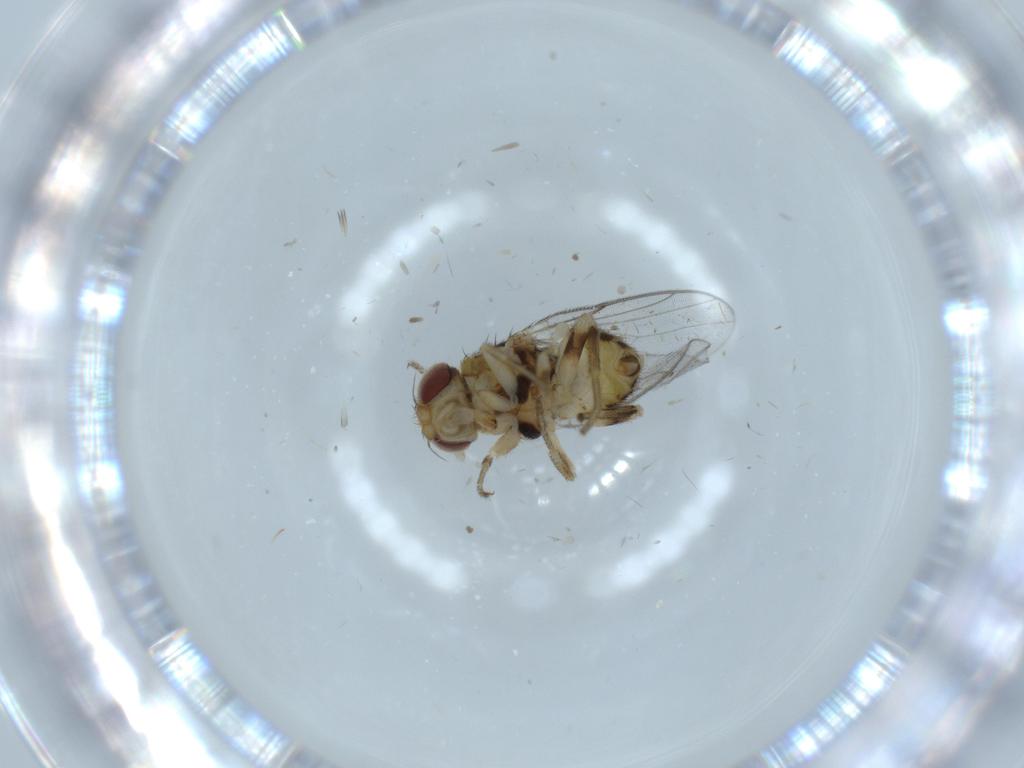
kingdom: Animalia
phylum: Arthropoda
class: Insecta
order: Diptera
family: Chloropidae
